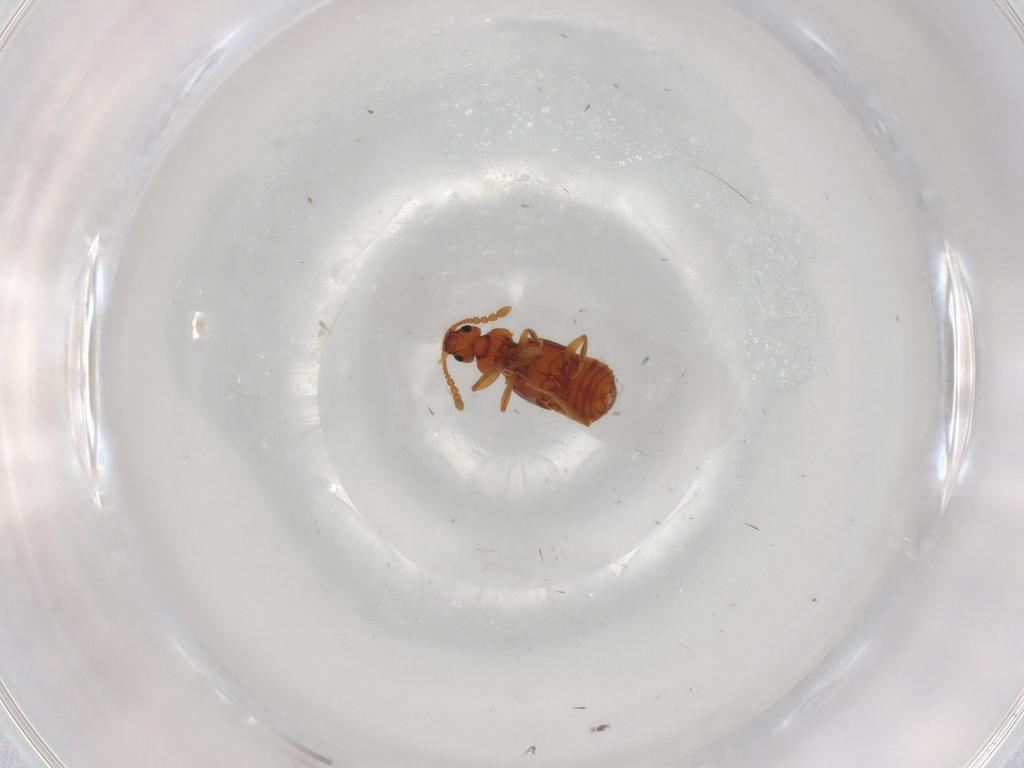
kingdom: Animalia
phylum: Arthropoda
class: Insecta
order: Coleoptera
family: Staphylinidae
